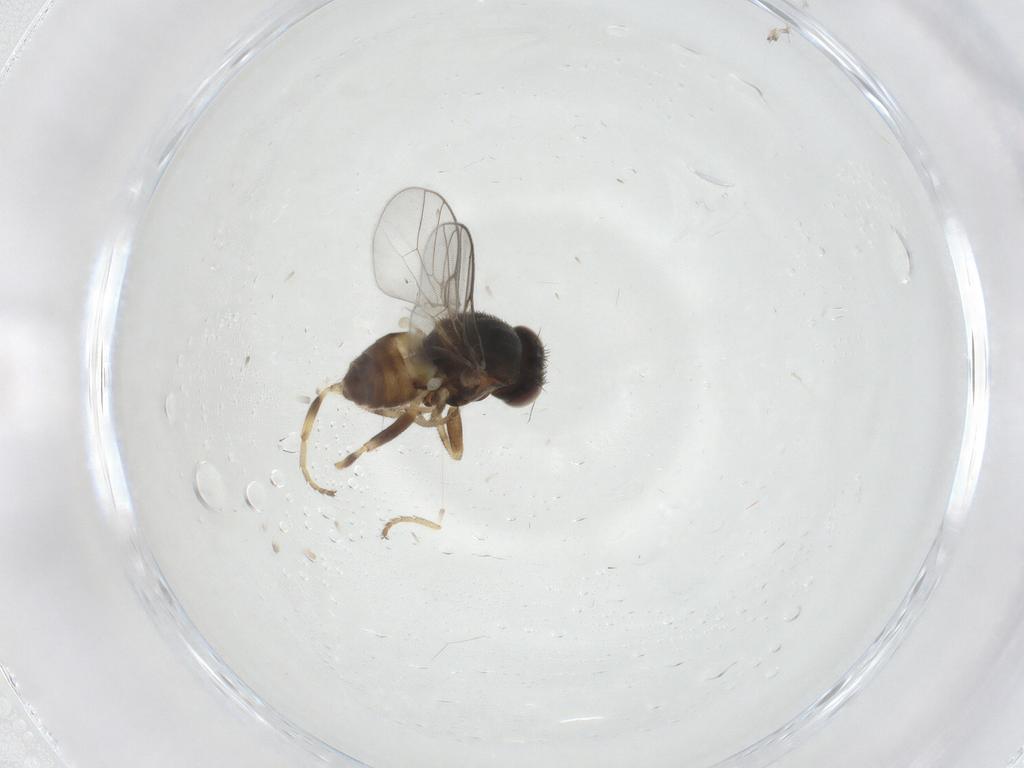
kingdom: Animalia
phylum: Arthropoda
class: Insecta
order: Diptera
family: Chloropidae
